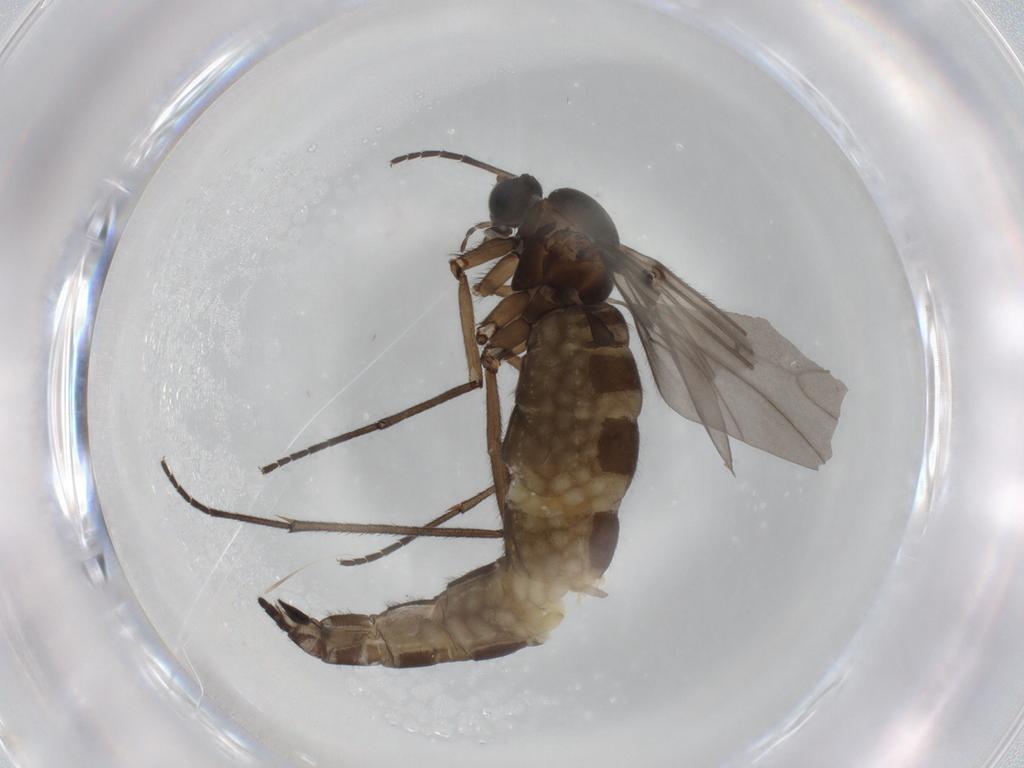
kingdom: Animalia
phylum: Arthropoda
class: Insecta
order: Diptera
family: Sciaridae
